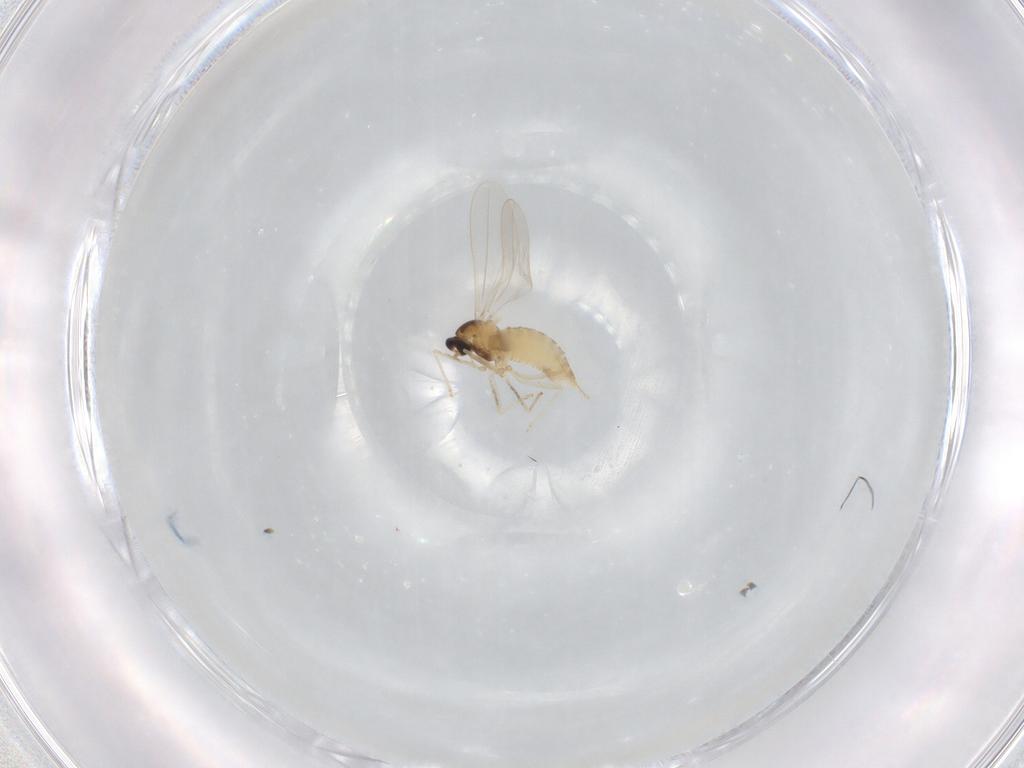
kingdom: Animalia
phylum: Arthropoda
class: Insecta
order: Diptera
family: Cecidomyiidae
